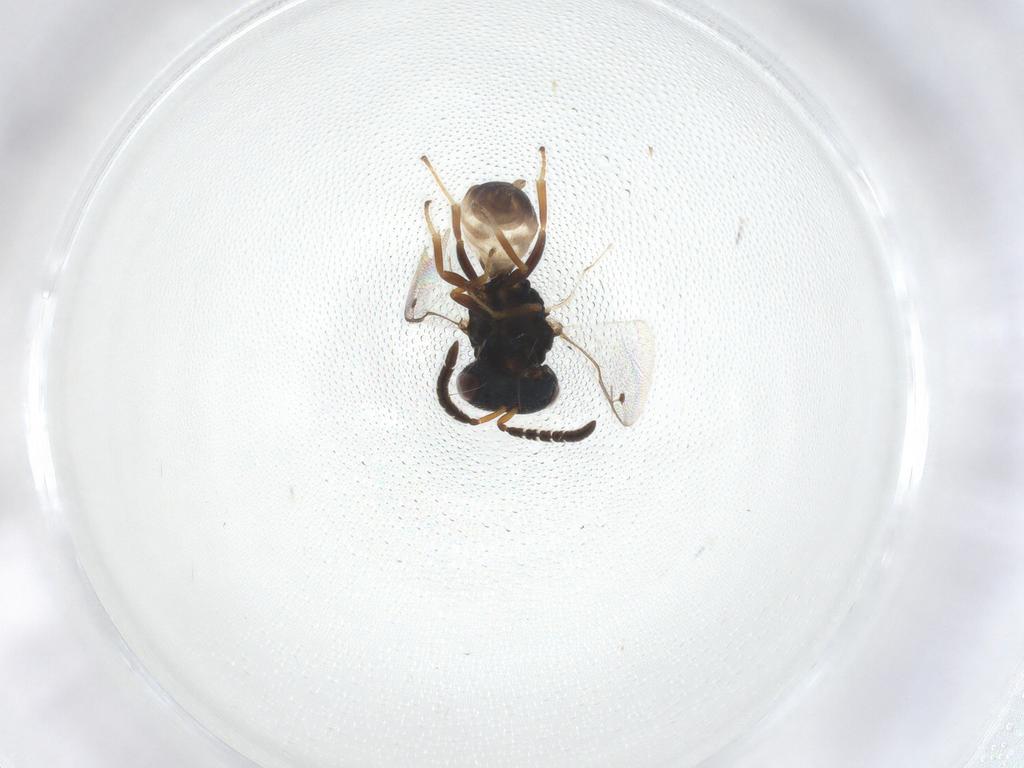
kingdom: Animalia
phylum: Arthropoda
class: Insecta
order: Hymenoptera
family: Pteromalidae
